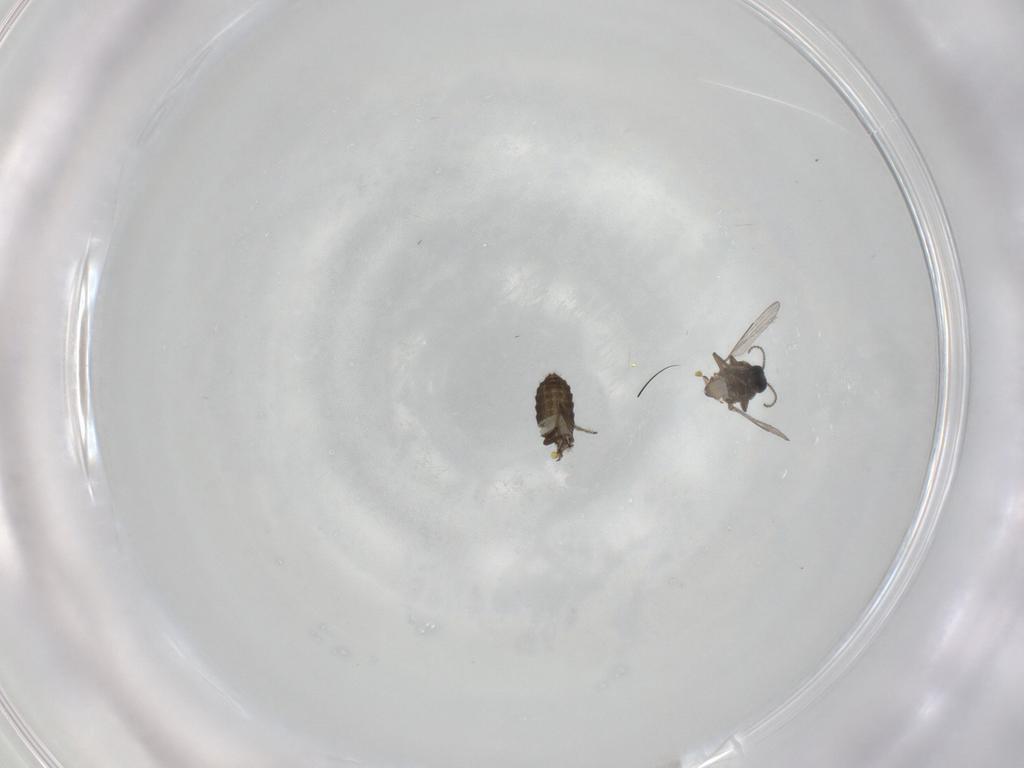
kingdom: Animalia
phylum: Arthropoda
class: Insecta
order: Diptera
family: Ceratopogonidae
